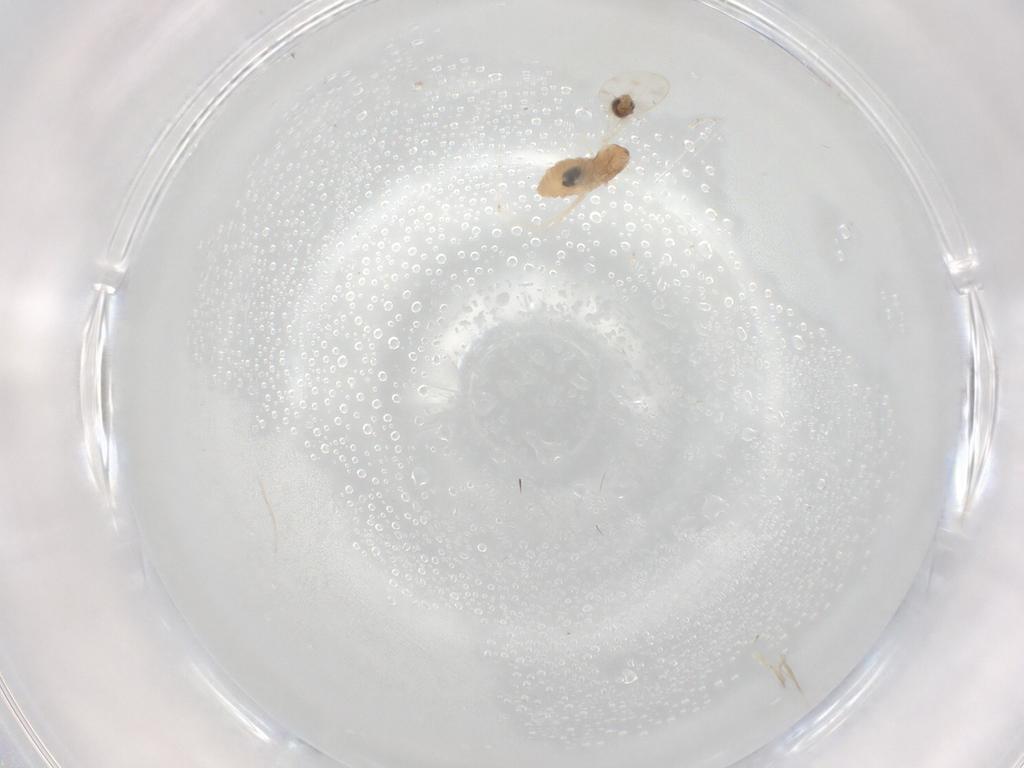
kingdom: Animalia
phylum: Arthropoda
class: Insecta
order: Diptera
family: Cecidomyiidae
